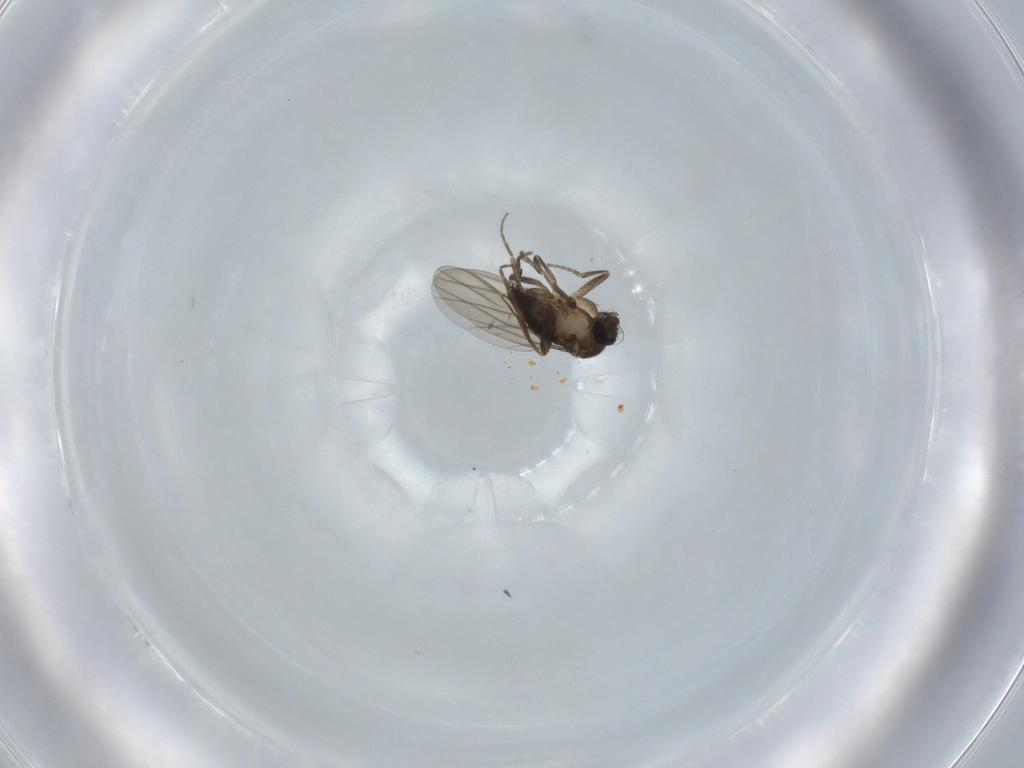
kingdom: Animalia
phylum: Arthropoda
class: Insecta
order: Diptera
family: Phoridae
